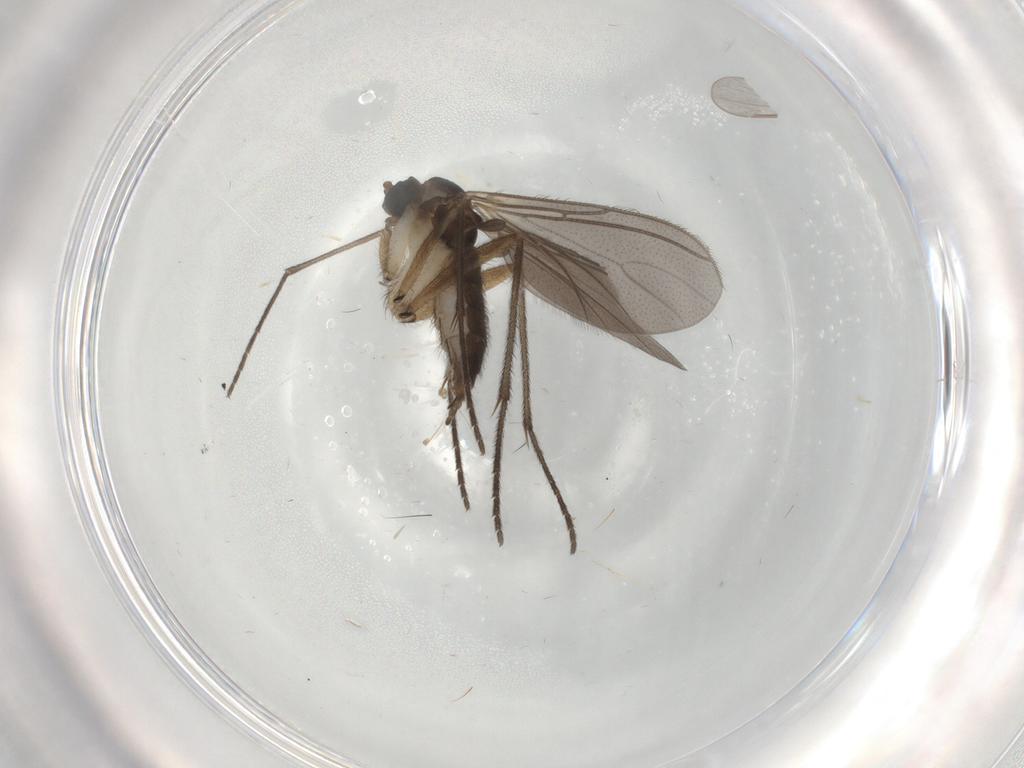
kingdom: Animalia
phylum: Arthropoda
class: Insecta
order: Diptera
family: Sciaridae
